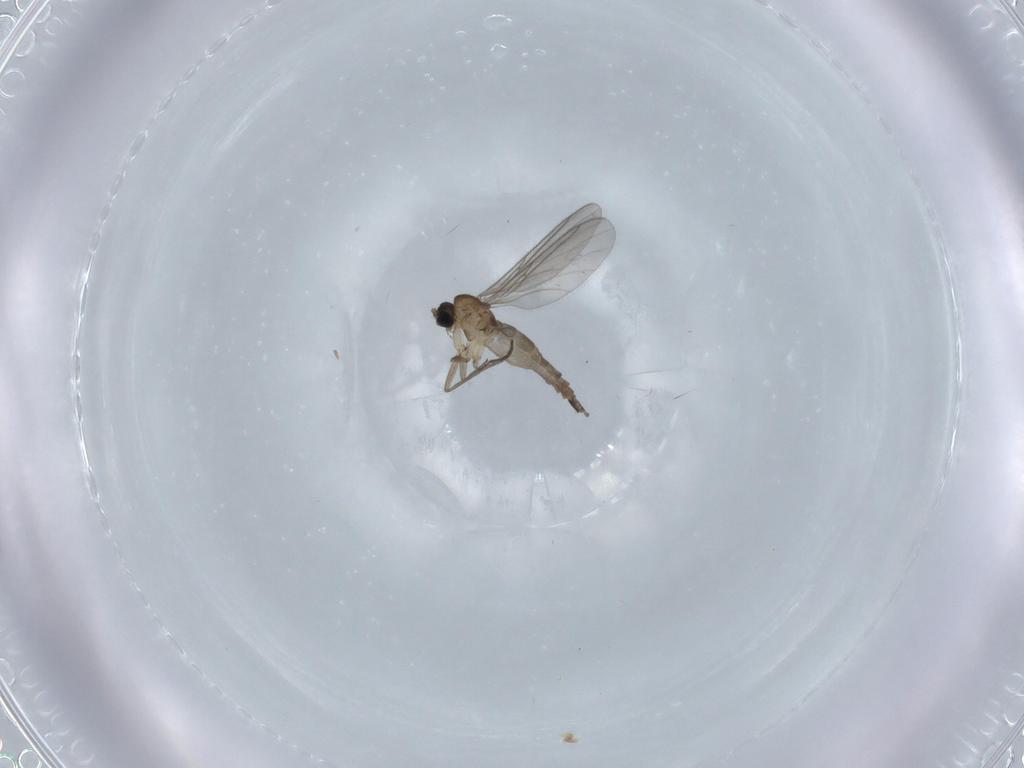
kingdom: Animalia
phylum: Arthropoda
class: Insecta
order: Diptera
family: Sciaridae
